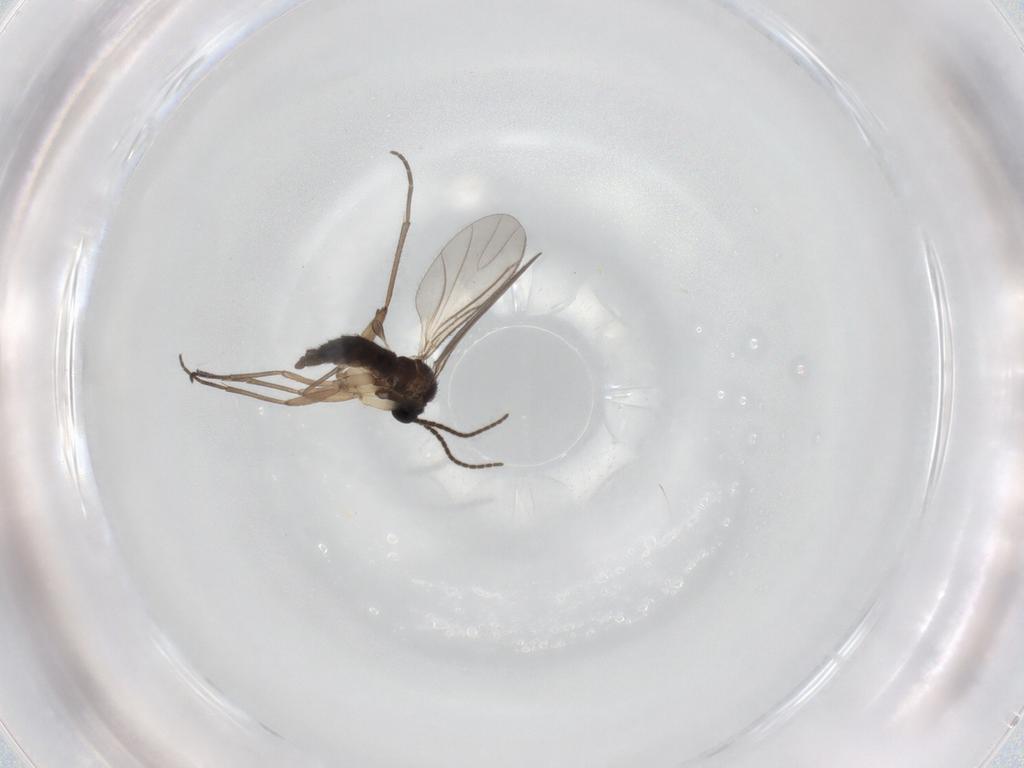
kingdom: Animalia
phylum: Arthropoda
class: Insecta
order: Diptera
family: Sciaridae
